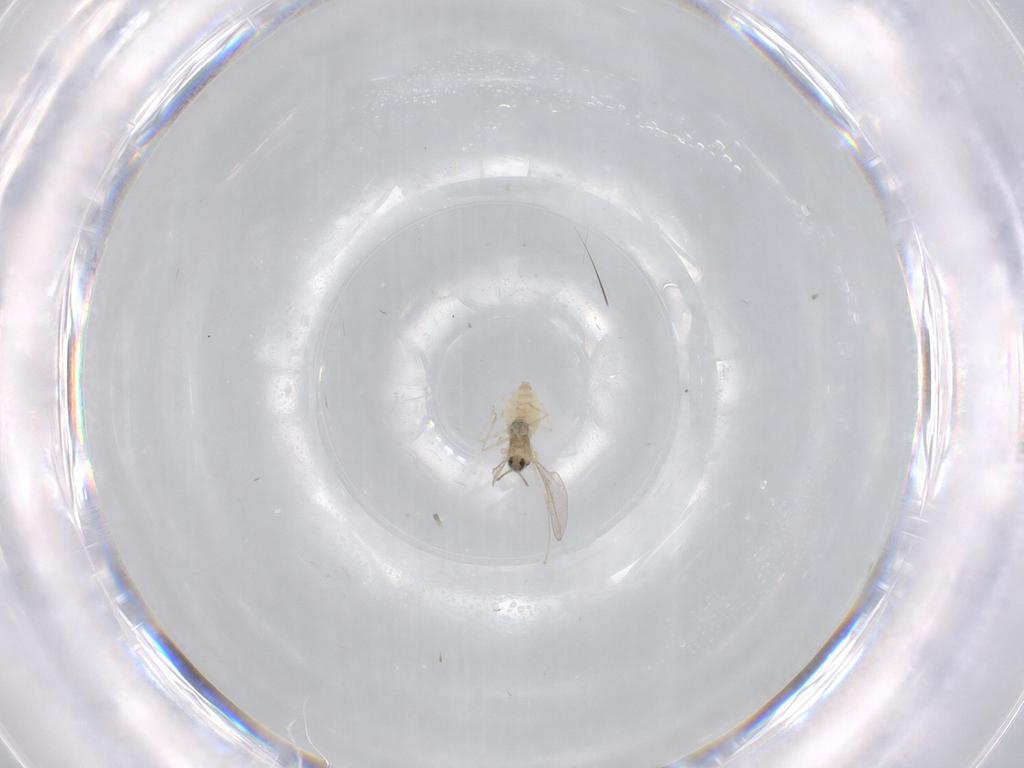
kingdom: Animalia
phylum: Arthropoda
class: Insecta
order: Diptera
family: Cecidomyiidae
